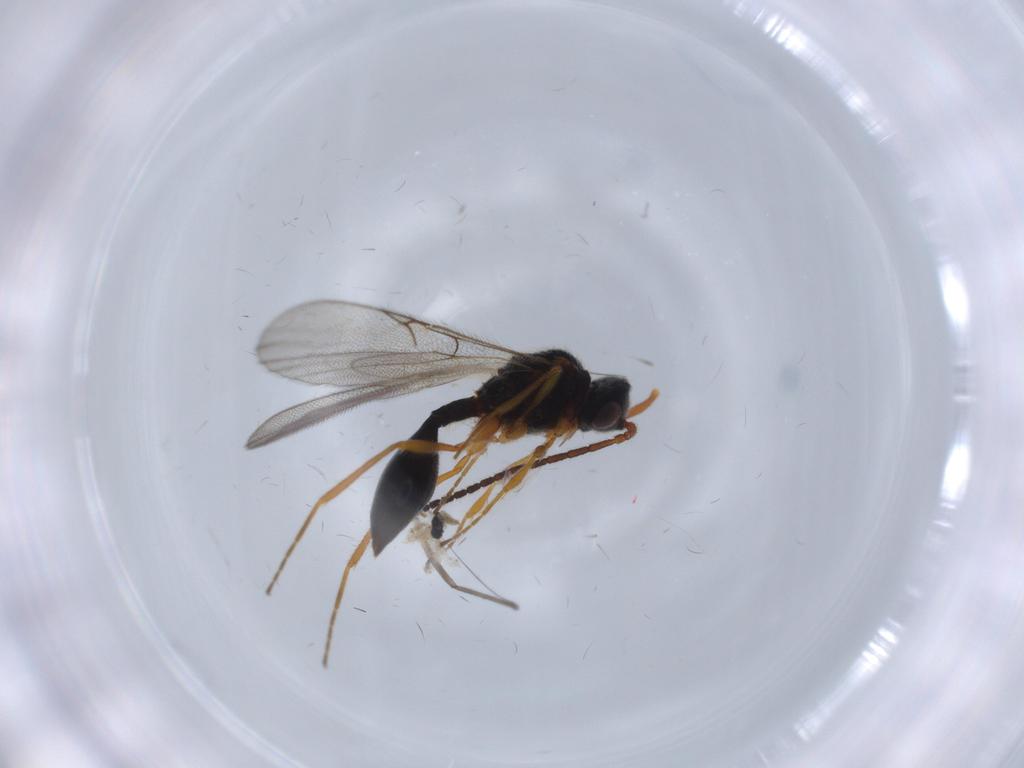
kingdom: Animalia
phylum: Arthropoda
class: Insecta
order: Hymenoptera
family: Diapriidae
